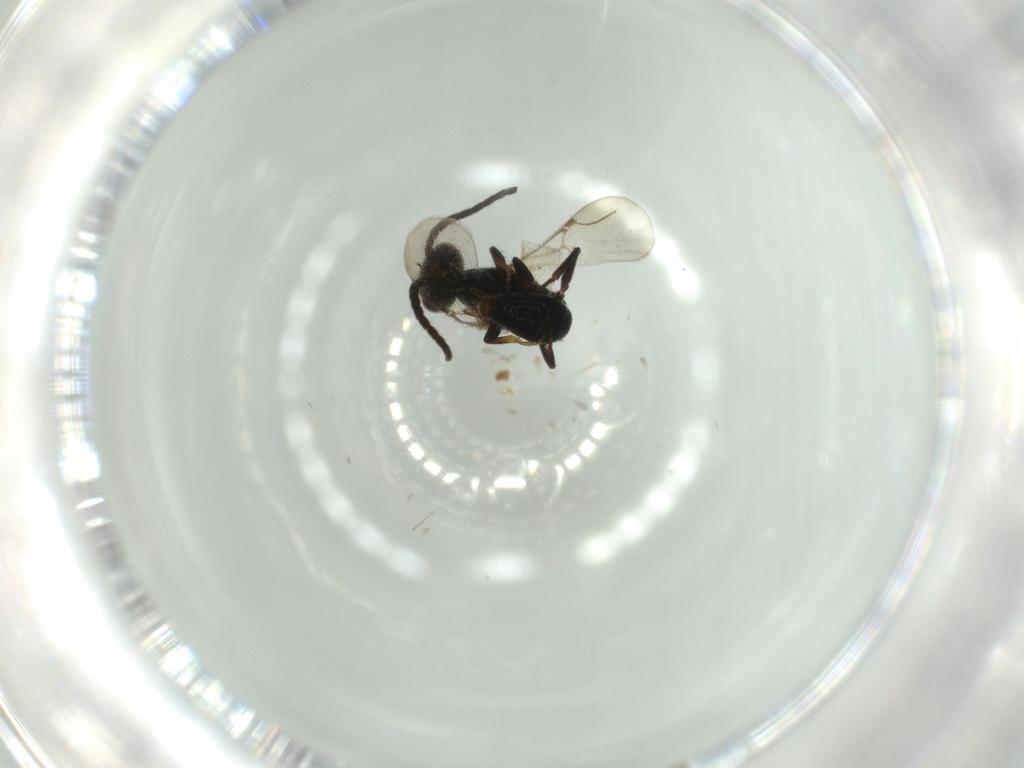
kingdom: Animalia
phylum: Arthropoda
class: Insecta
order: Hymenoptera
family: Bethylidae
